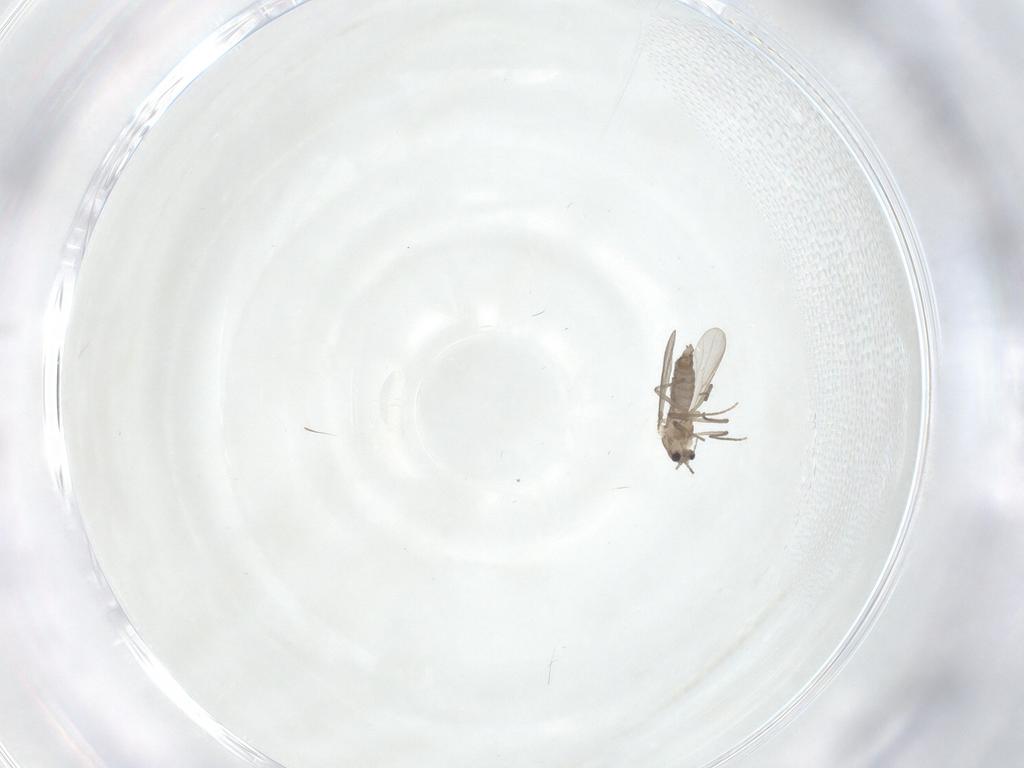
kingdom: Animalia
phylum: Arthropoda
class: Insecta
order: Diptera
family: Chironomidae
